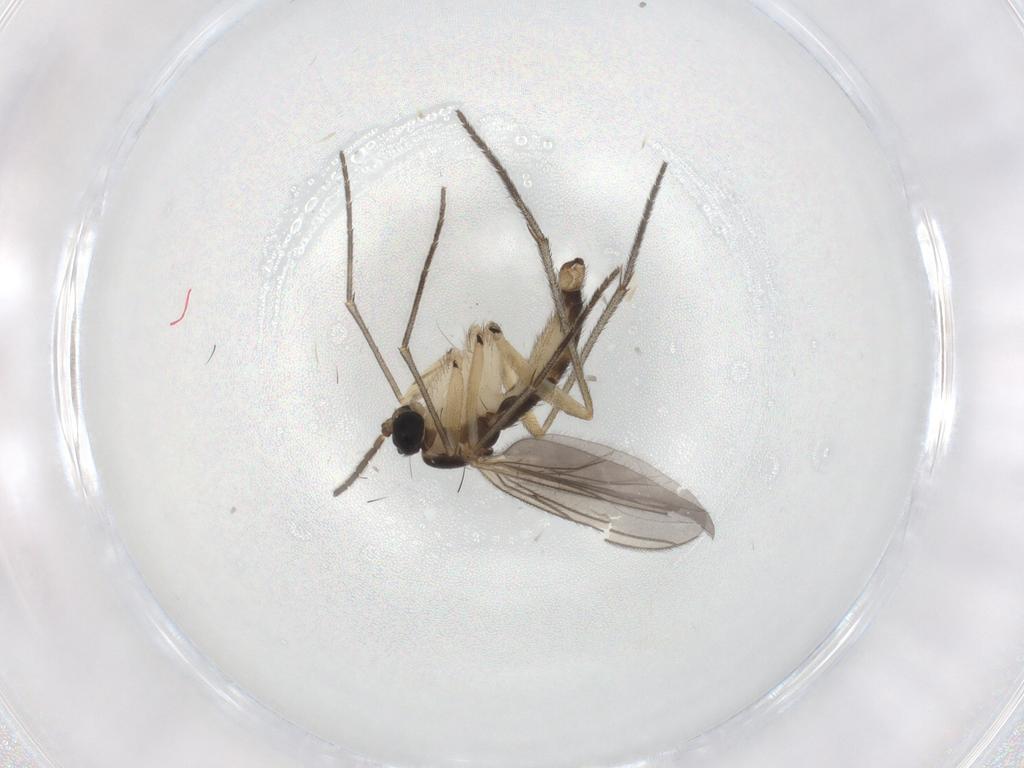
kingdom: Animalia
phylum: Arthropoda
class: Insecta
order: Diptera
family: Sciaridae
